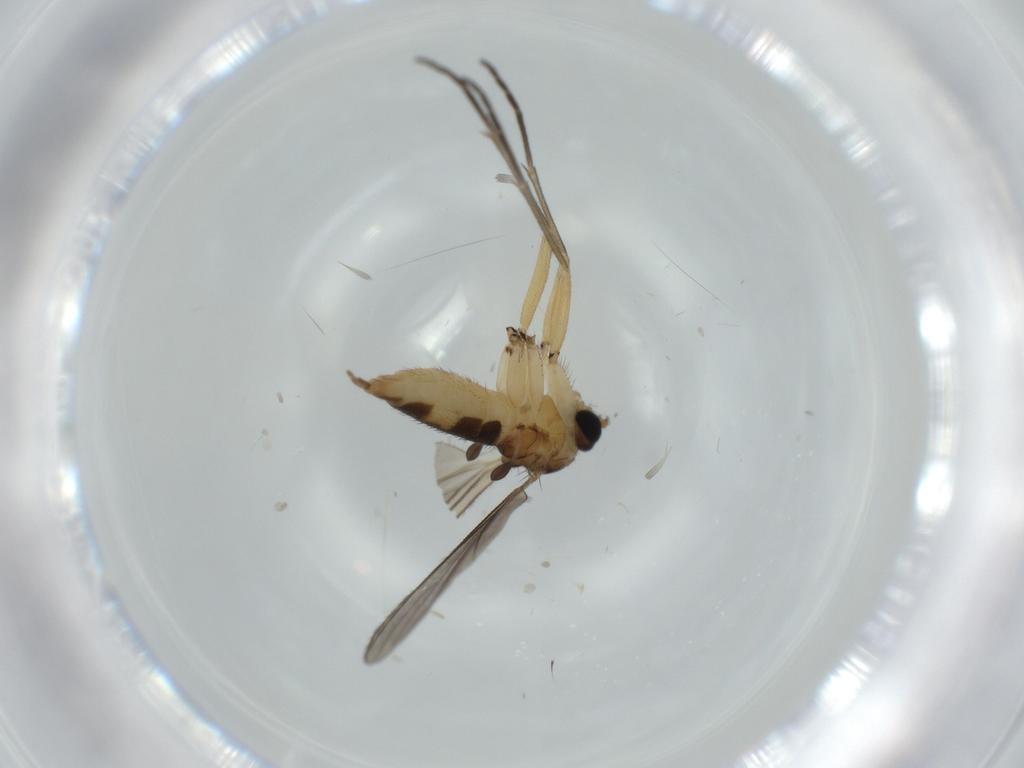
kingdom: Animalia
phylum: Arthropoda
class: Insecta
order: Diptera
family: Sciaridae
